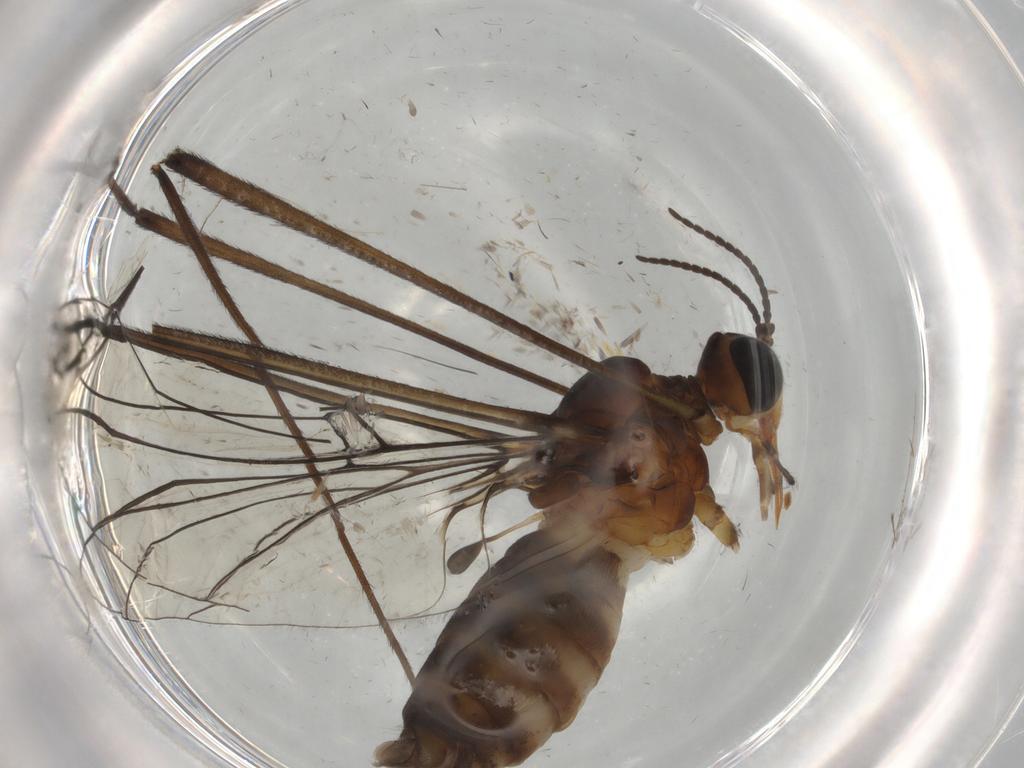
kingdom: Animalia
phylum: Arthropoda
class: Insecta
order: Diptera
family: Chironomidae
